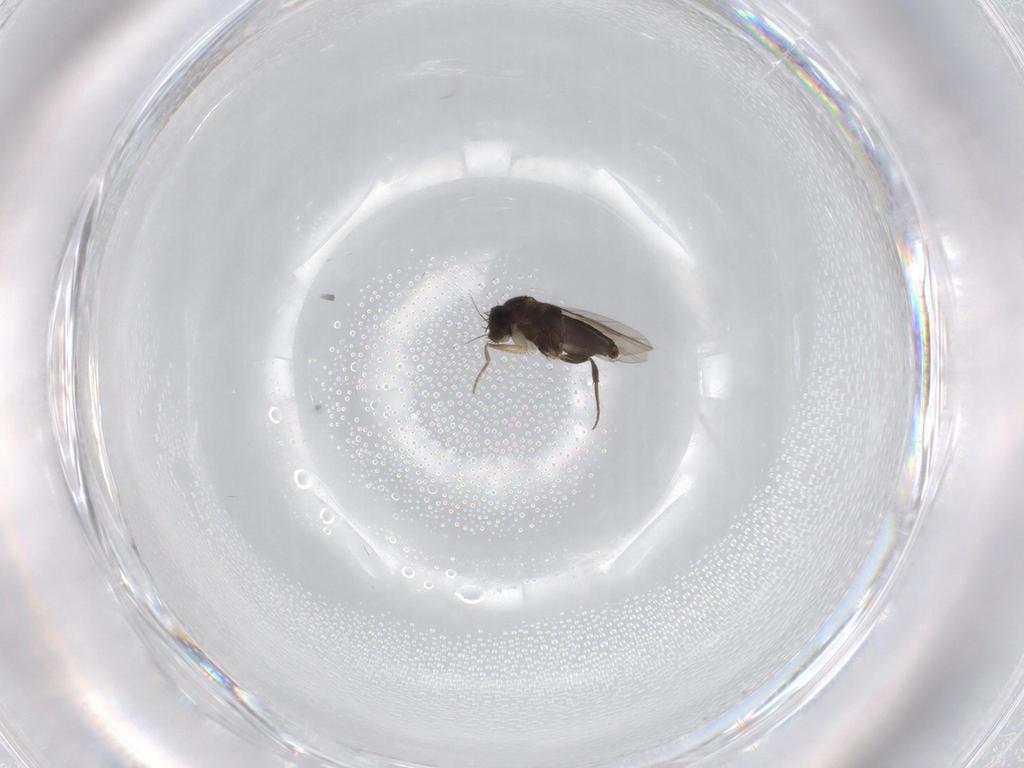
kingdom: Animalia
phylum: Arthropoda
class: Insecta
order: Diptera
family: Phoridae
